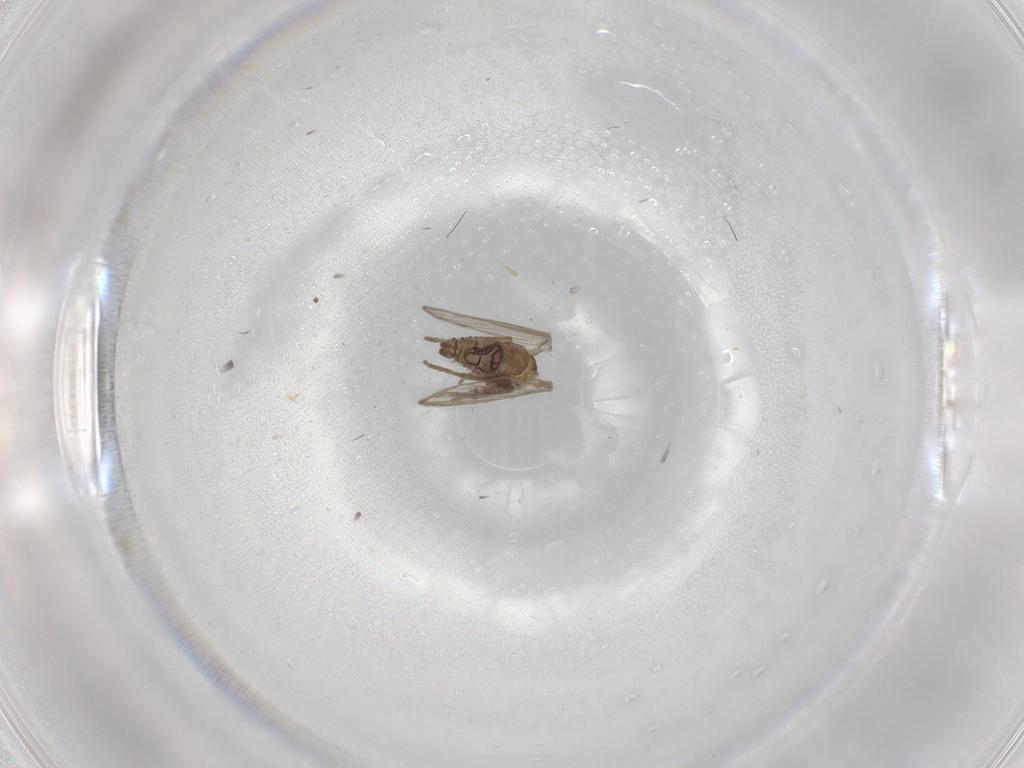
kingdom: Animalia
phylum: Arthropoda
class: Insecta
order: Diptera
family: Psychodidae
